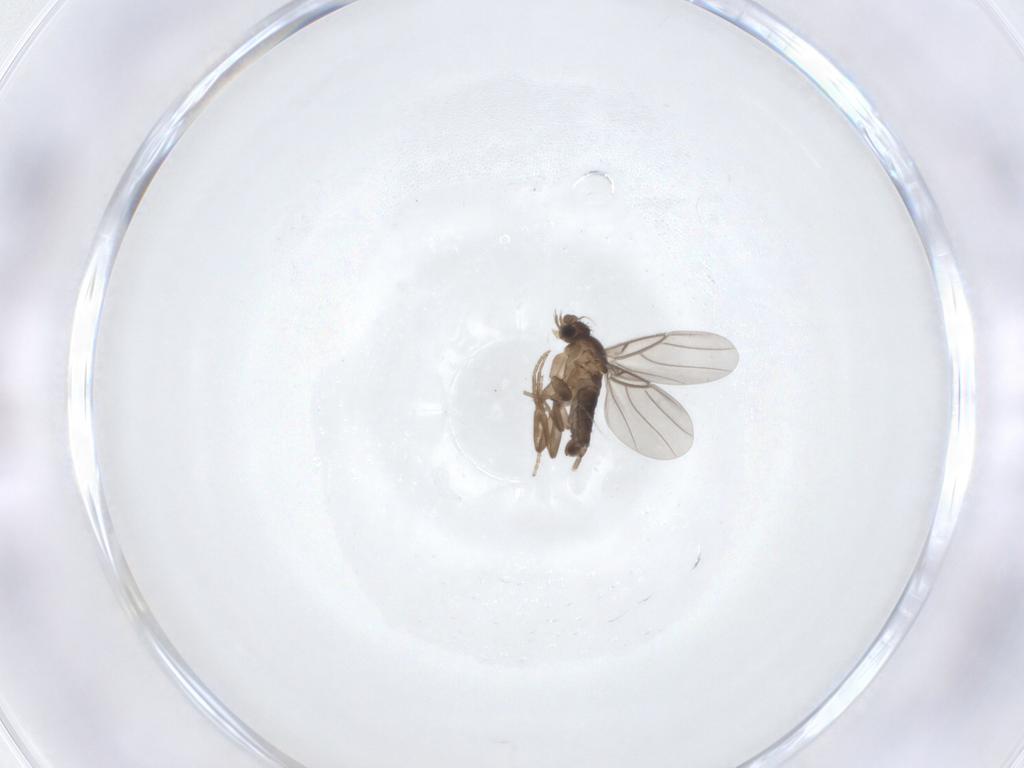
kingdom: Animalia
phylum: Arthropoda
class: Insecta
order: Diptera
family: Phoridae
